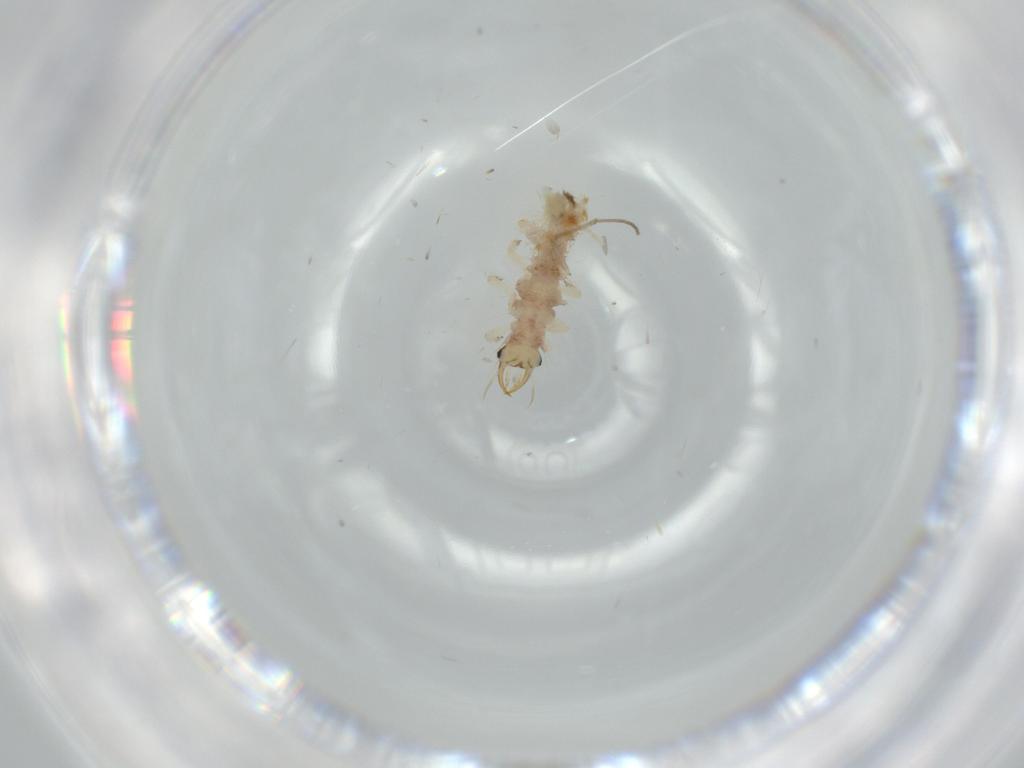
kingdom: Animalia
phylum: Arthropoda
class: Insecta
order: Neuroptera
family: Chrysopidae
